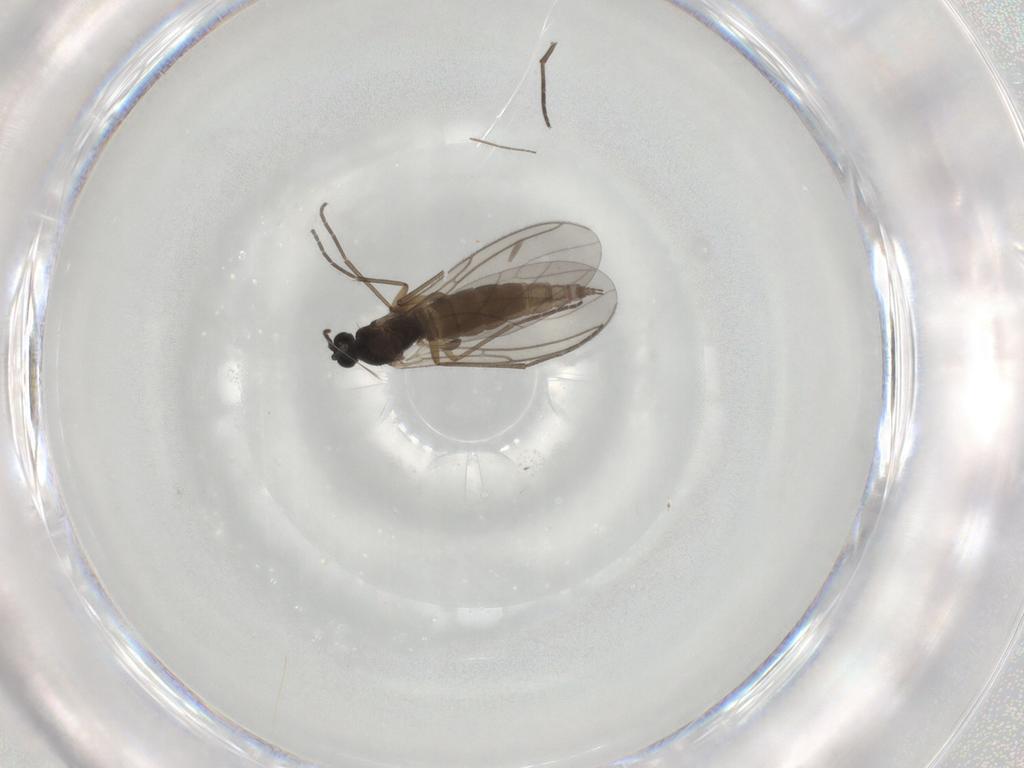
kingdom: Animalia
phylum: Arthropoda
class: Insecta
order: Diptera
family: Sciaridae
